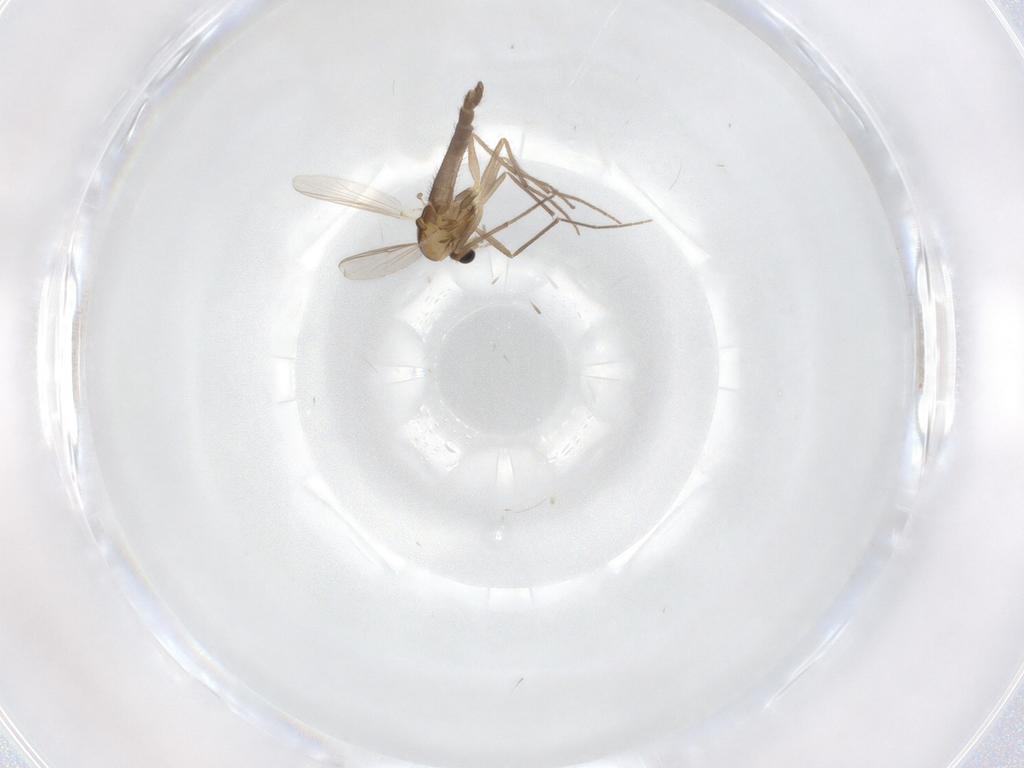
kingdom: Animalia
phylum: Arthropoda
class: Insecta
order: Diptera
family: Chironomidae
